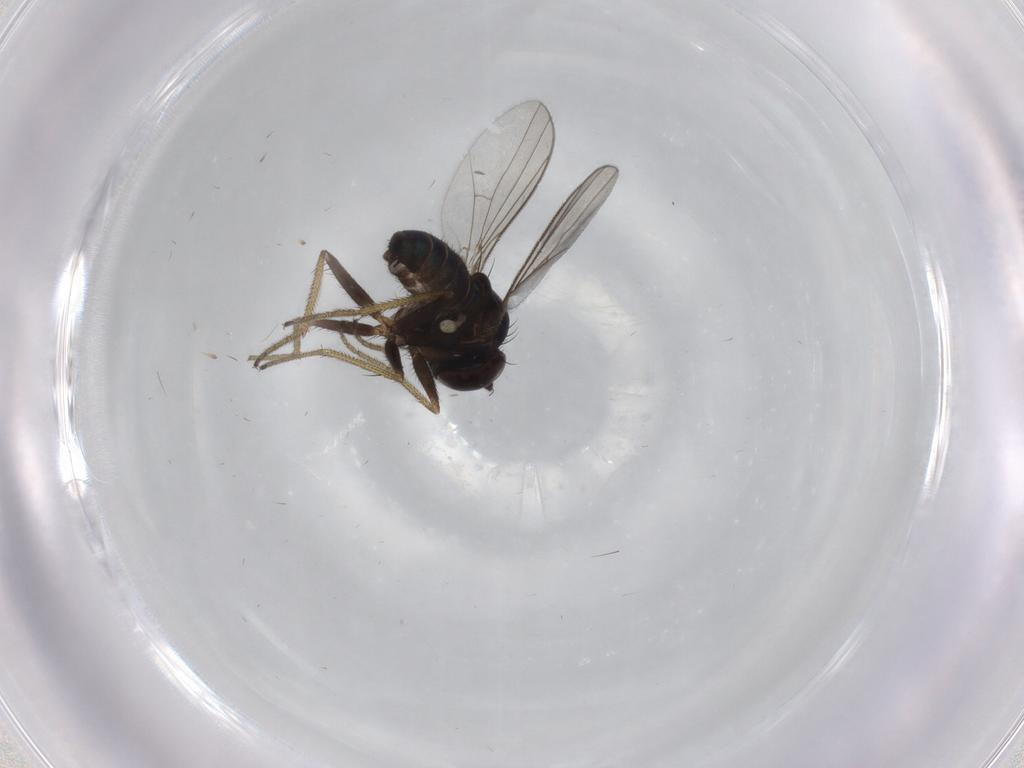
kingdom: Animalia
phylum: Arthropoda
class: Insecta
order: Diptera
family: Dolichopodidae
